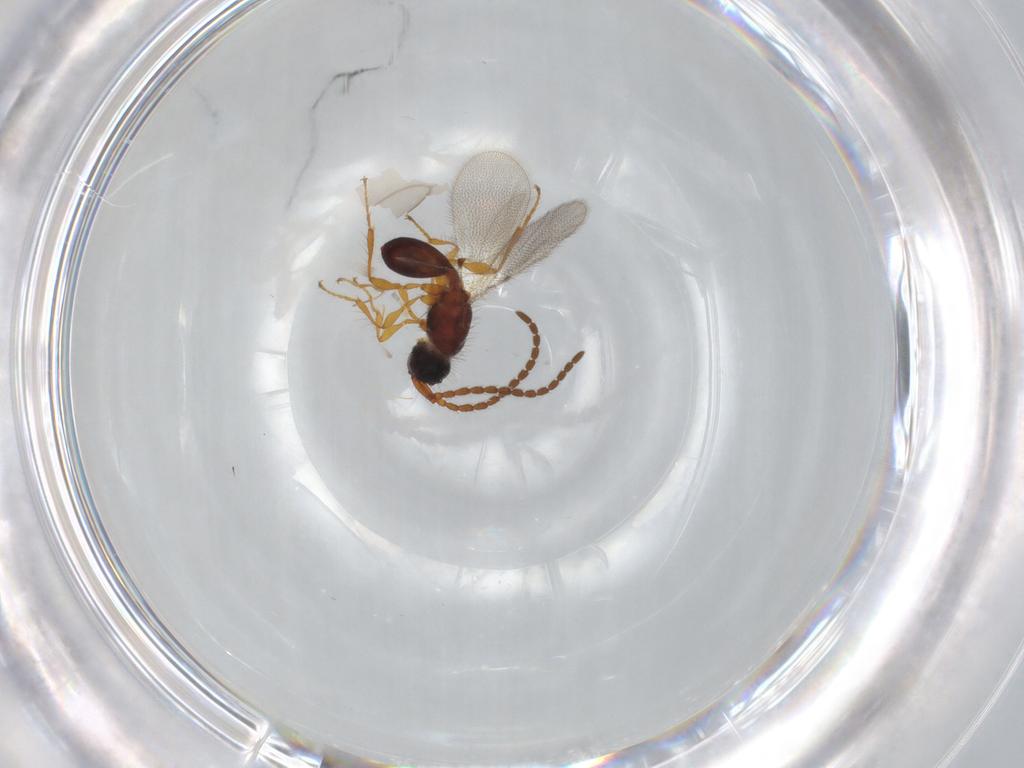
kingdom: Animalia
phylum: Arthropoda
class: Insecta
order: Hymenoptera
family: Diapriidae
